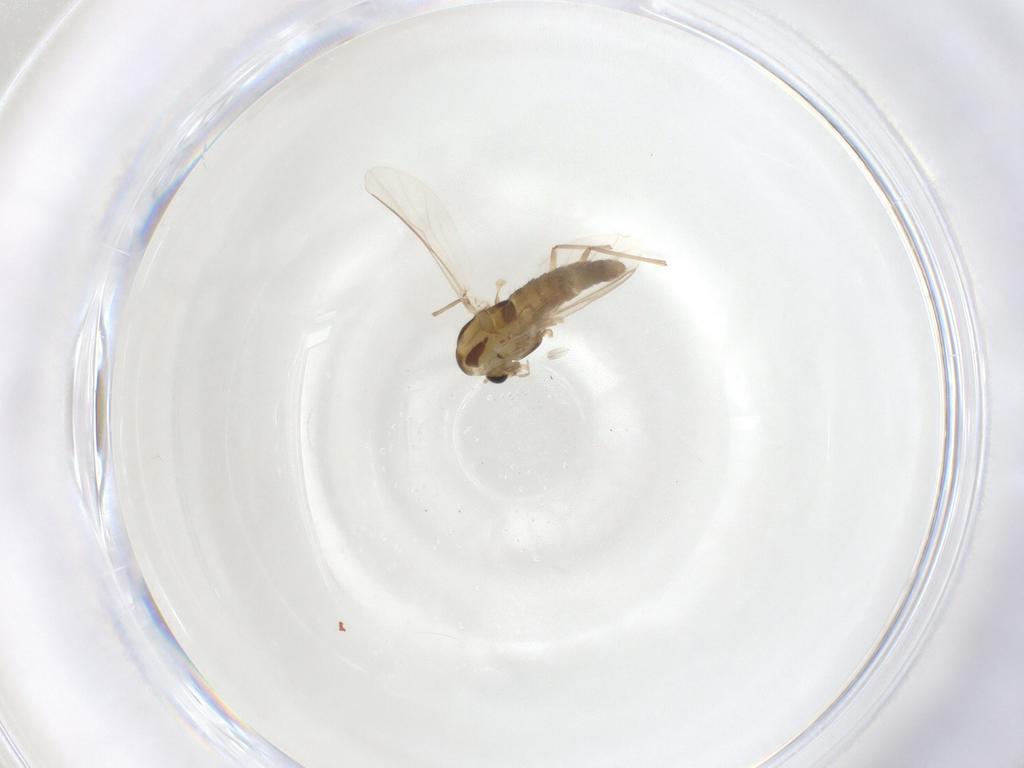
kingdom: Animalia
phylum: Arthropoda
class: Insecta
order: Diptera
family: Chironomidae
